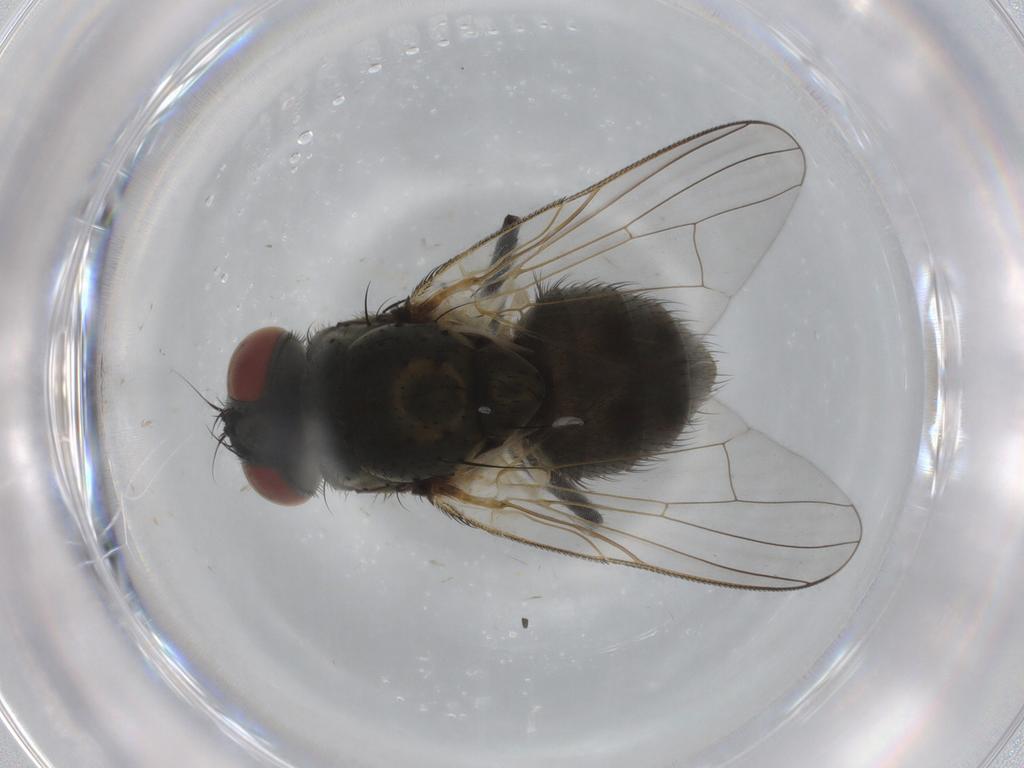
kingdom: Animalia
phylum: Arthropoda
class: Insecta
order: Diptera
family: Muscidae
